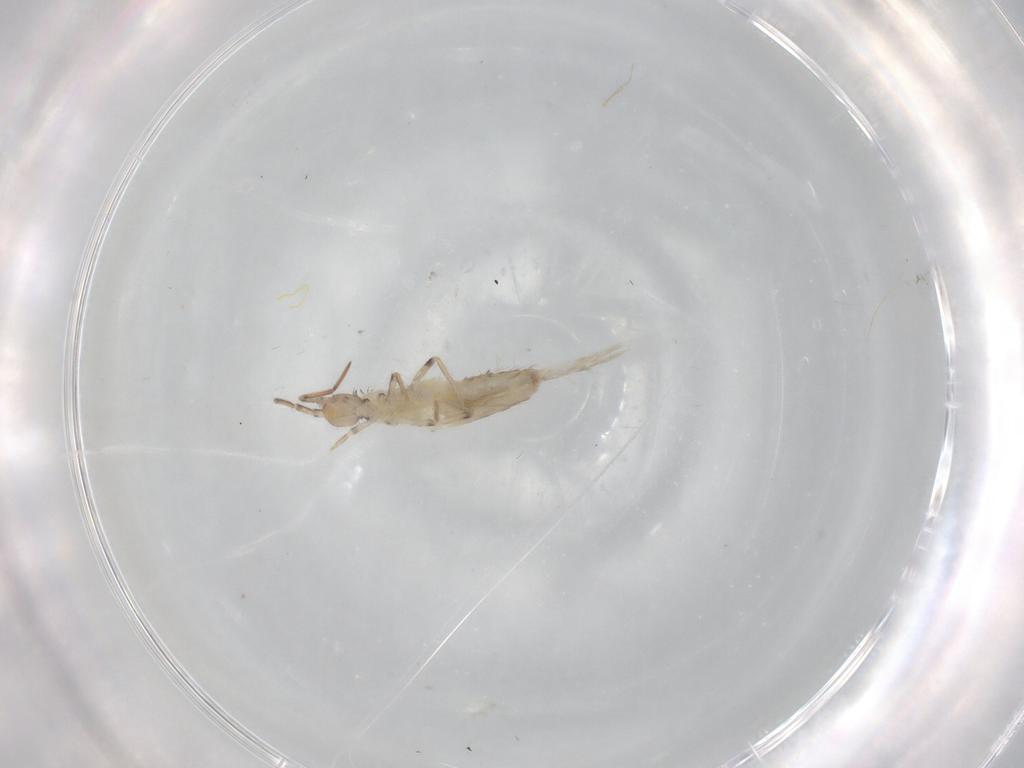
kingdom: Animalia
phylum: Arthropoda
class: Collembola
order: Entomobryomorpha
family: Entomobryidae
